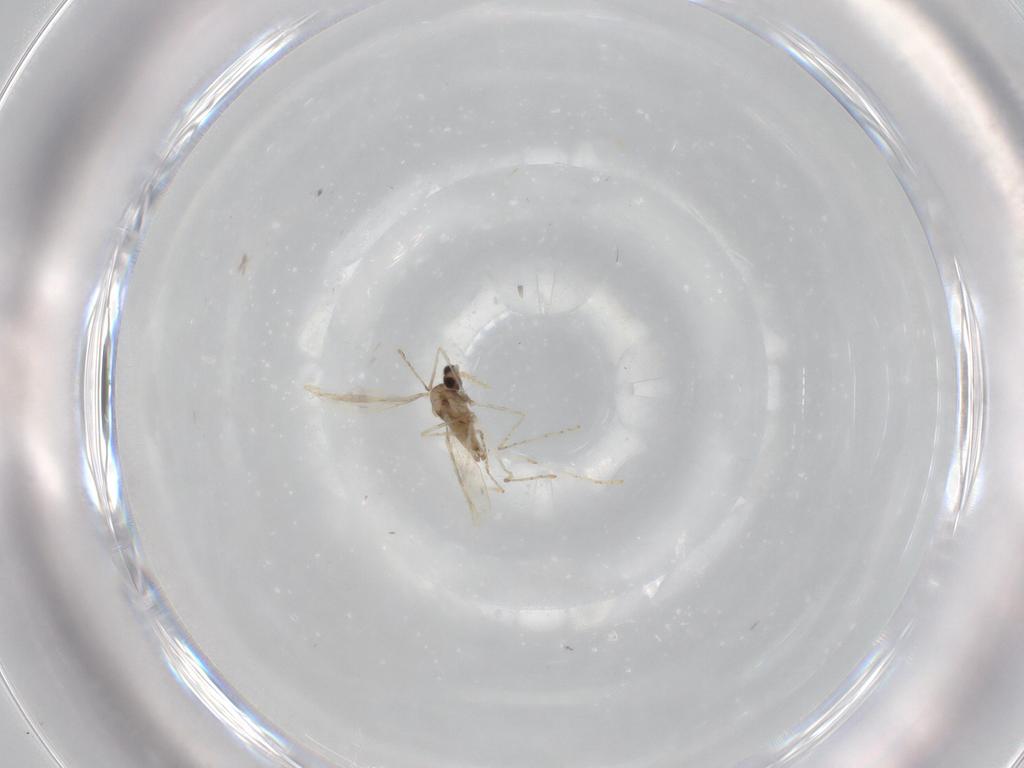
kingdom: Animalia
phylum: Arthropoda
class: Insecta
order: Diptera
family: Cecidomyiidae
